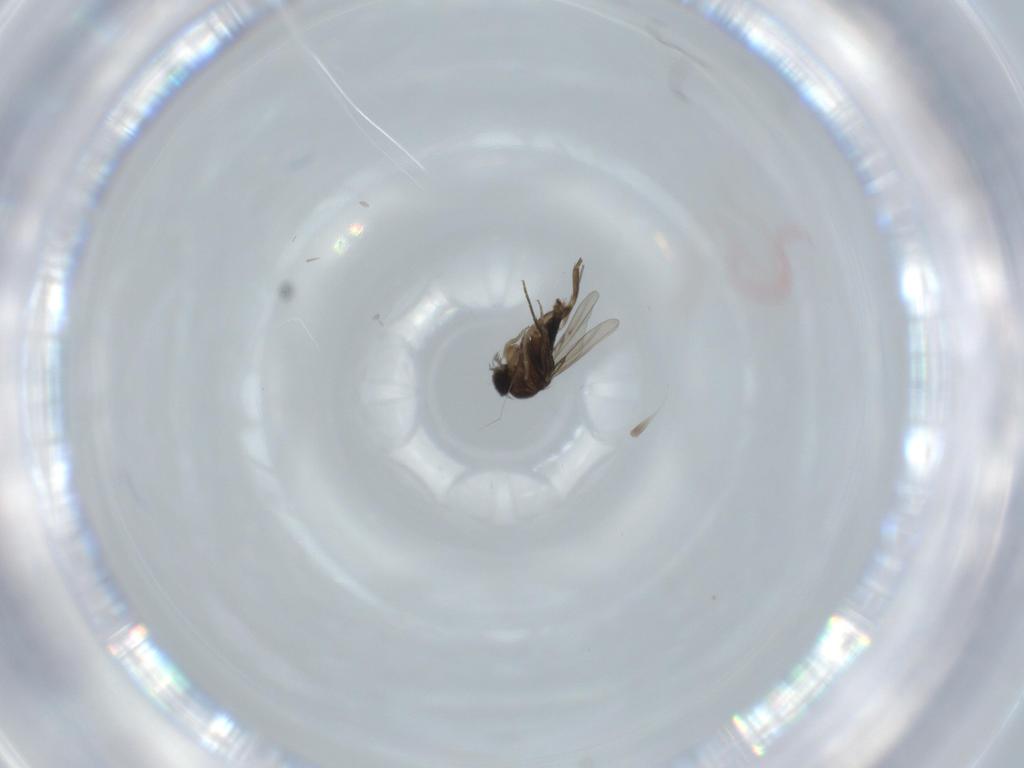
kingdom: Animalia
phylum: Arthropoda
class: Insecta
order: Diptera
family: Phoridae
